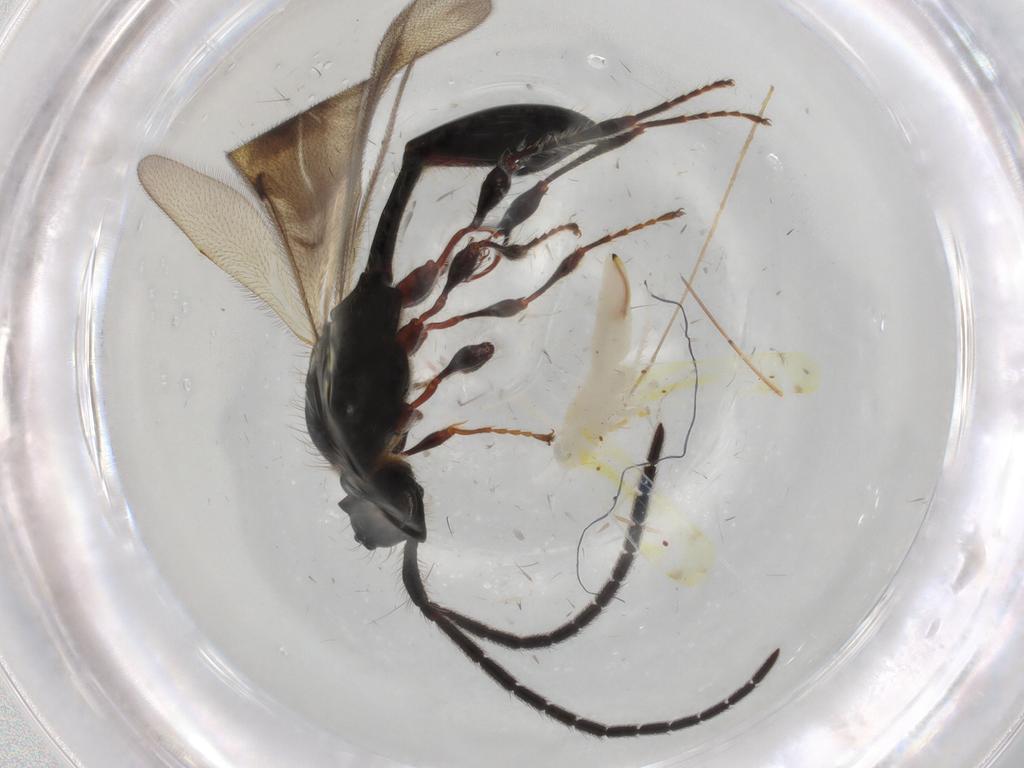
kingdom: Animalia
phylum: Arthropoda
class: Insecta
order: Hymenoptera
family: Diapriidae
